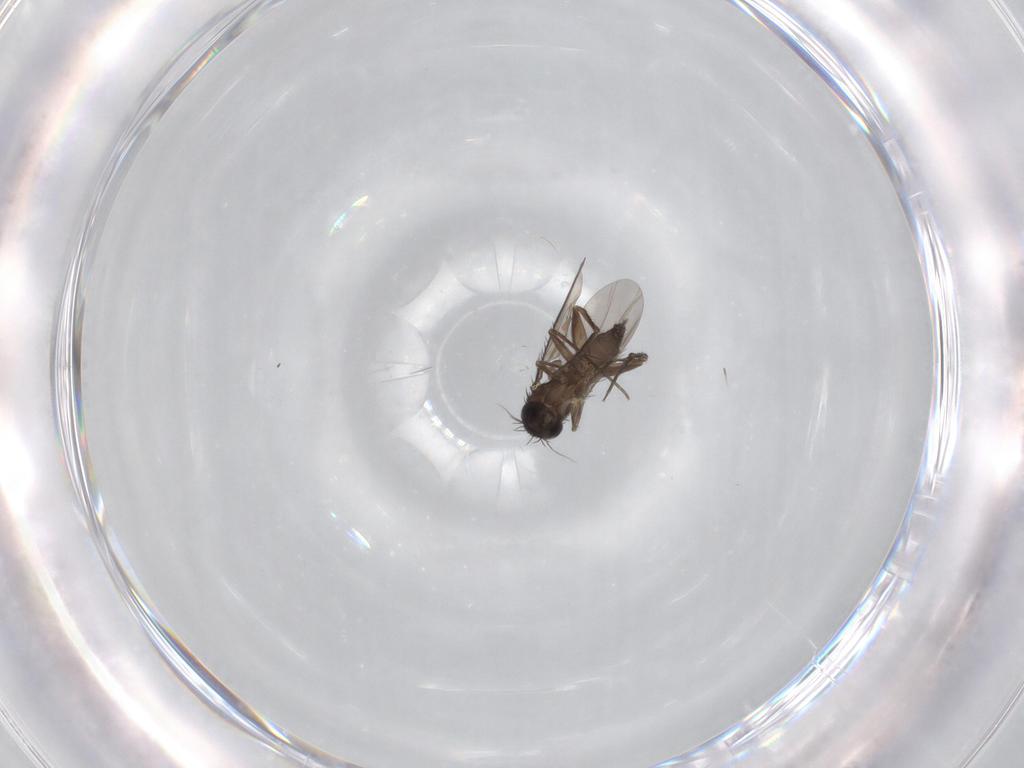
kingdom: Animalia
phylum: Arthropoda
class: Insecta
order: Diptera
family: Phoridae
